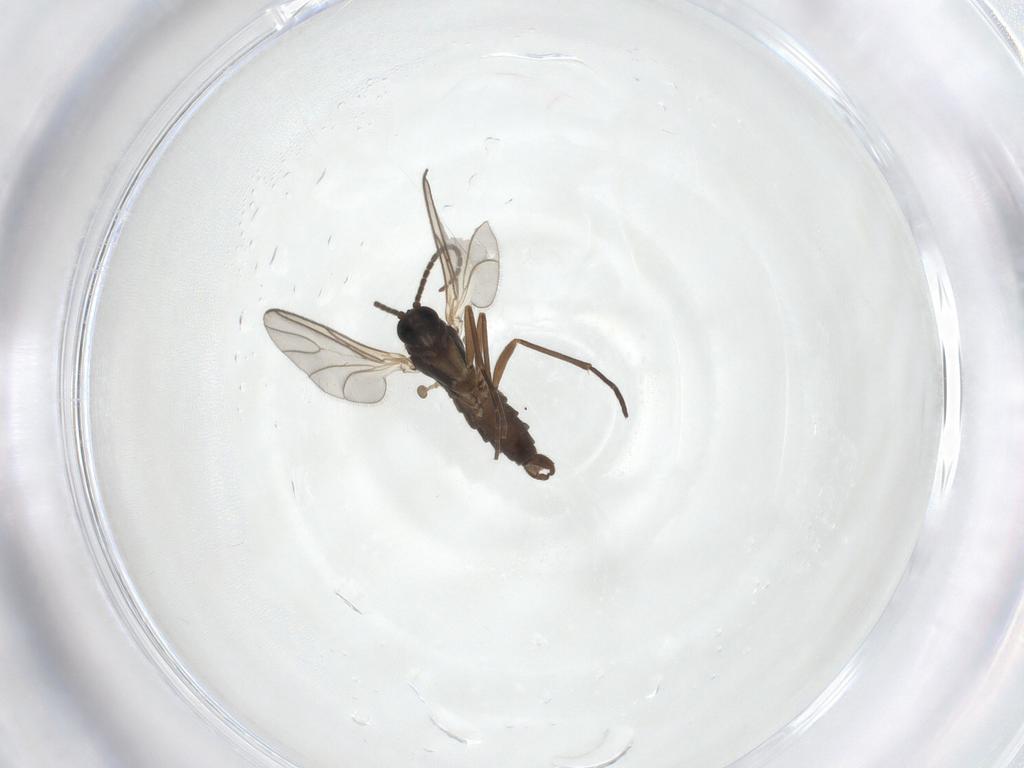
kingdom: Animalia
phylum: Arthropoda
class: Insecta
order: Diptera
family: Sciaridae
